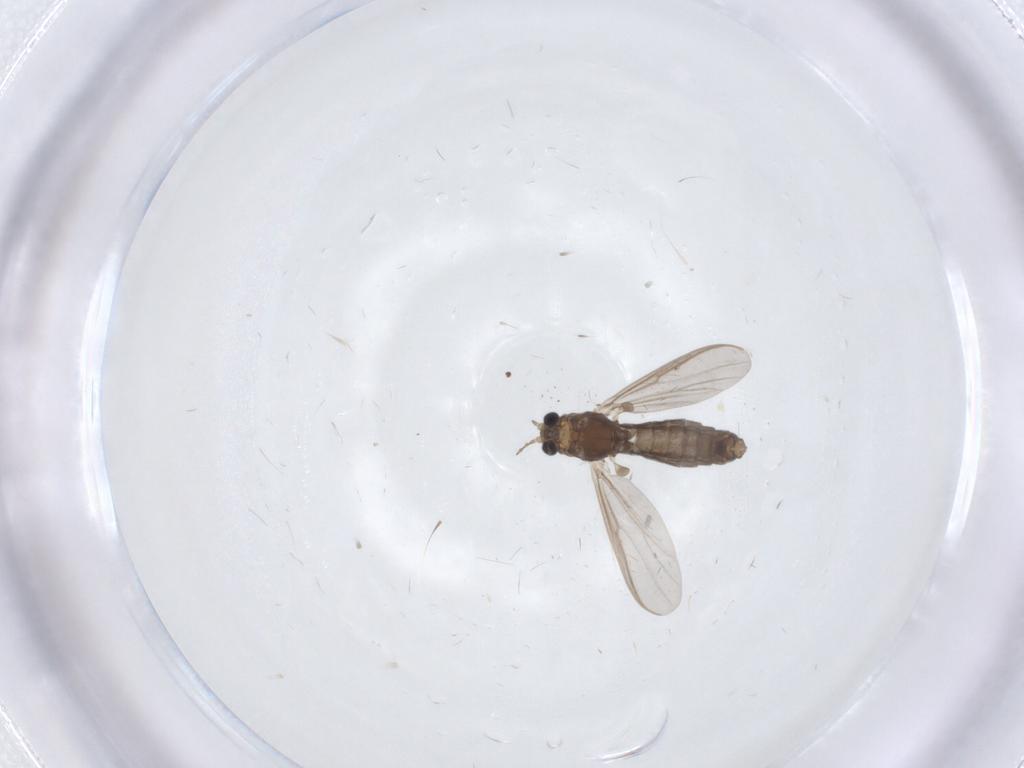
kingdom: Animalia
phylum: Arthropoda
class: Insecta
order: Diptera
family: Chironomidae
